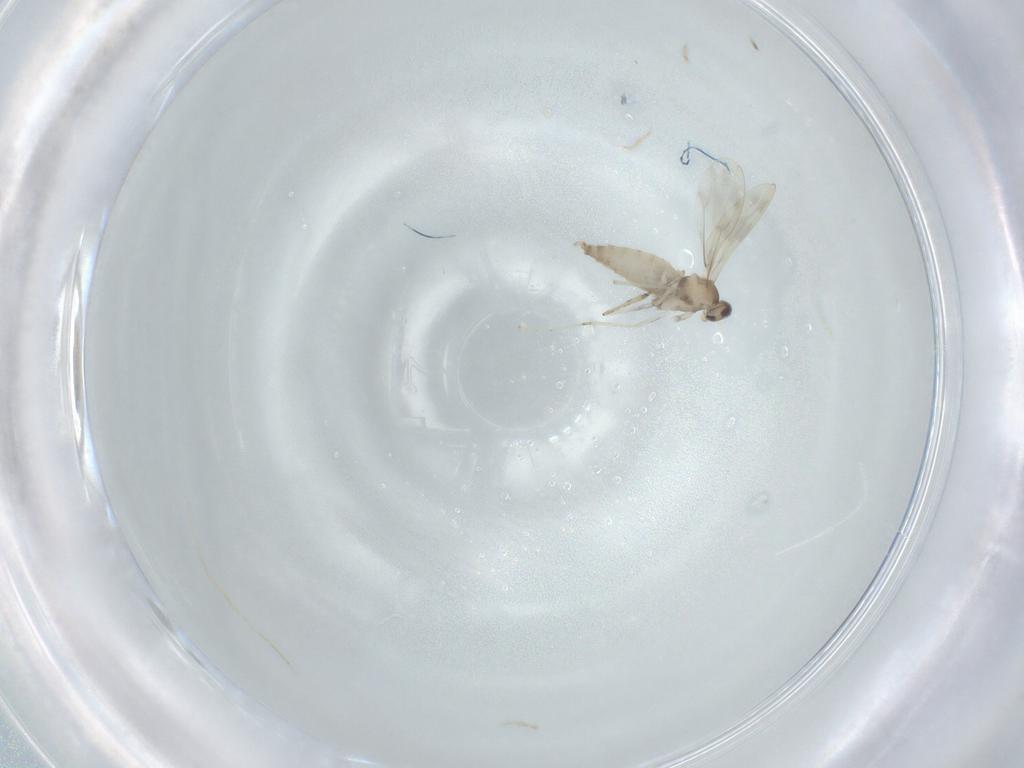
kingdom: Animalia
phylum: Arthropoda
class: Insecta
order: Diptera
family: Cecidomyiidae
